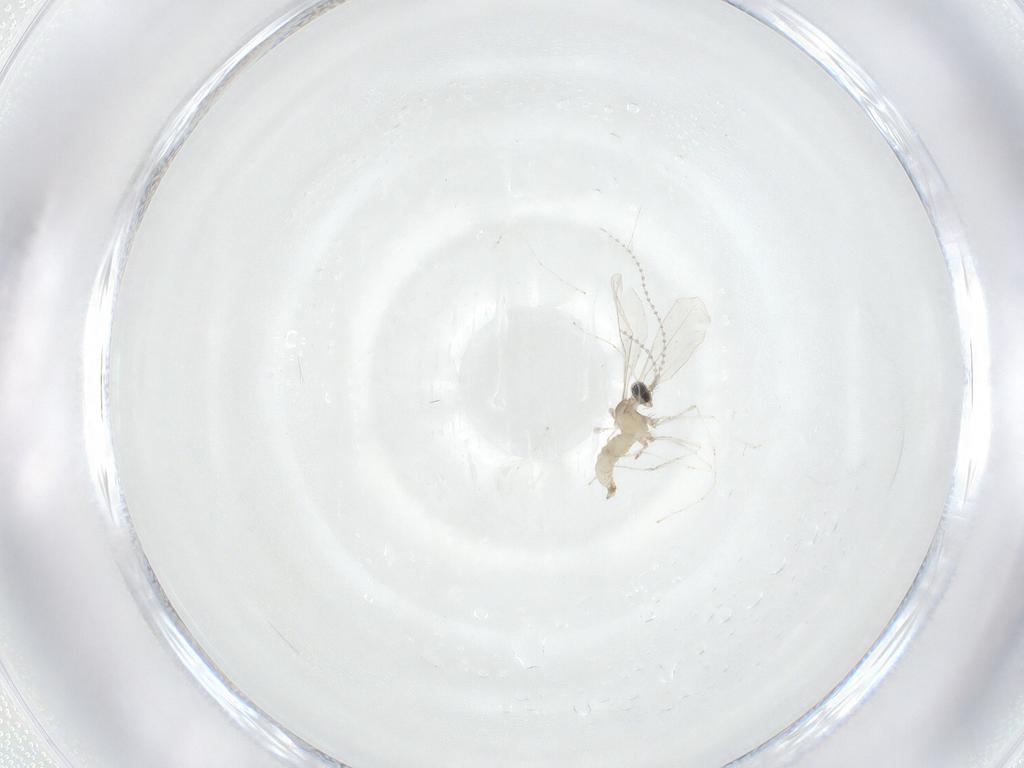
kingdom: Animalia
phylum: Arthropoda
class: Insecta
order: Diptera
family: Cecidomyiidae
